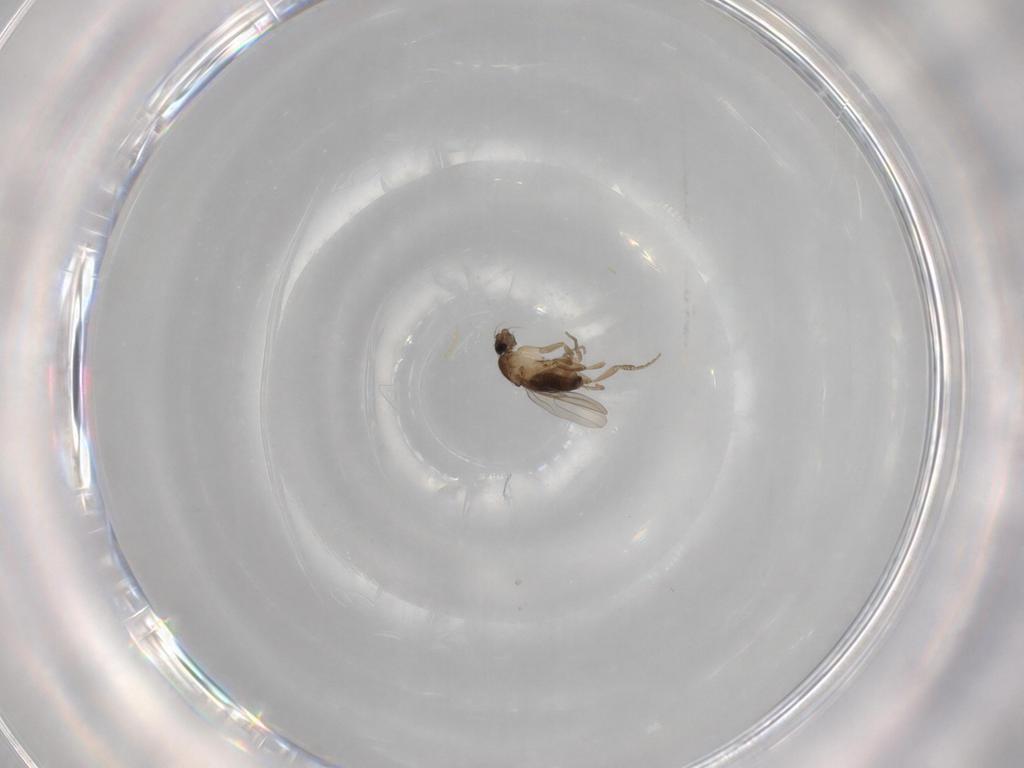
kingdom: Animalia
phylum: Arthropoda
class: Insecta
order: Diptera
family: Phoridae
